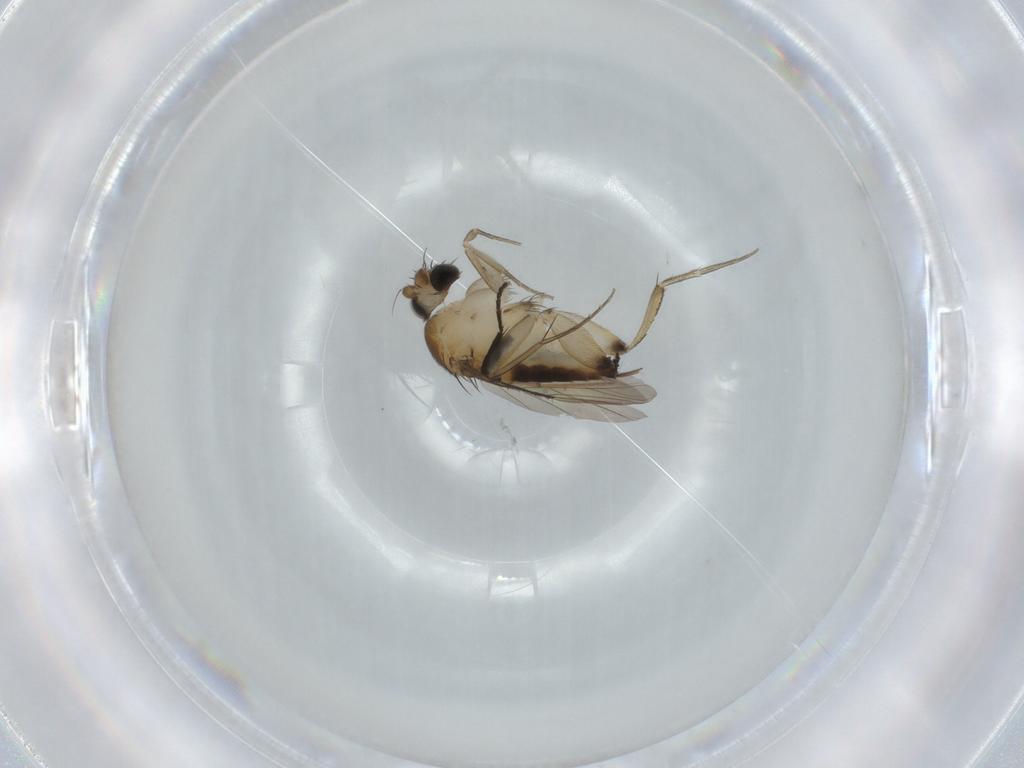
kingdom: Animalia
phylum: Arthropoda
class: Insecta
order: Diptera
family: Phoridae
